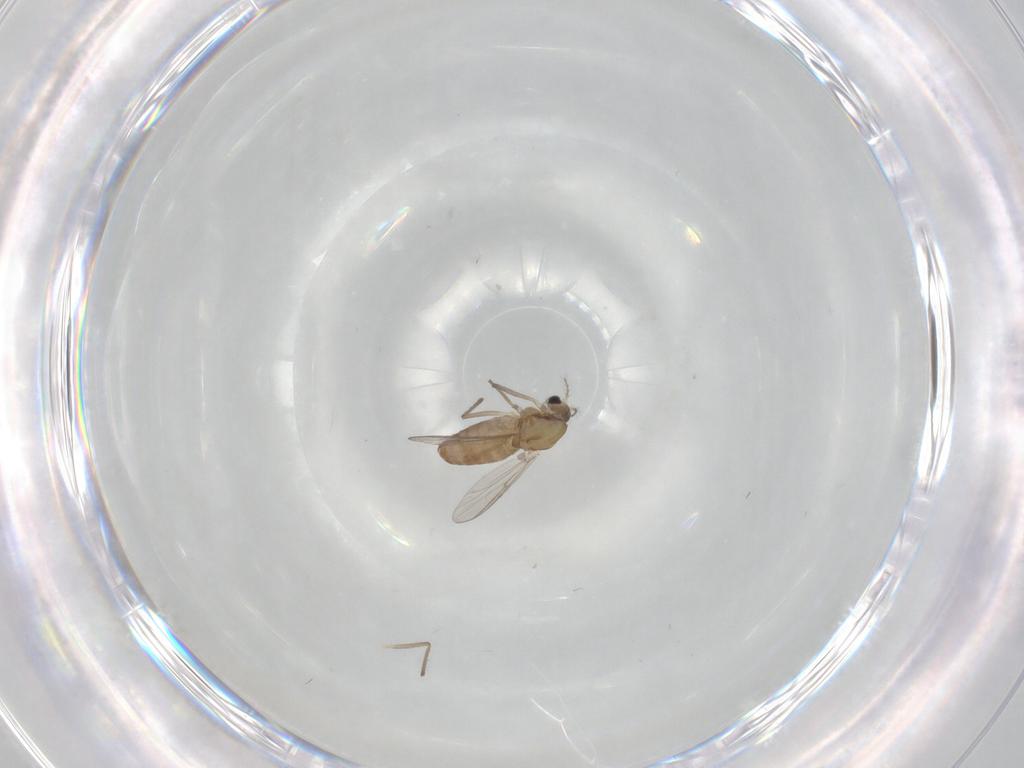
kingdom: Animalia
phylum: Arthropoda
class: Insecta
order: Diptera
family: Chironomidae
